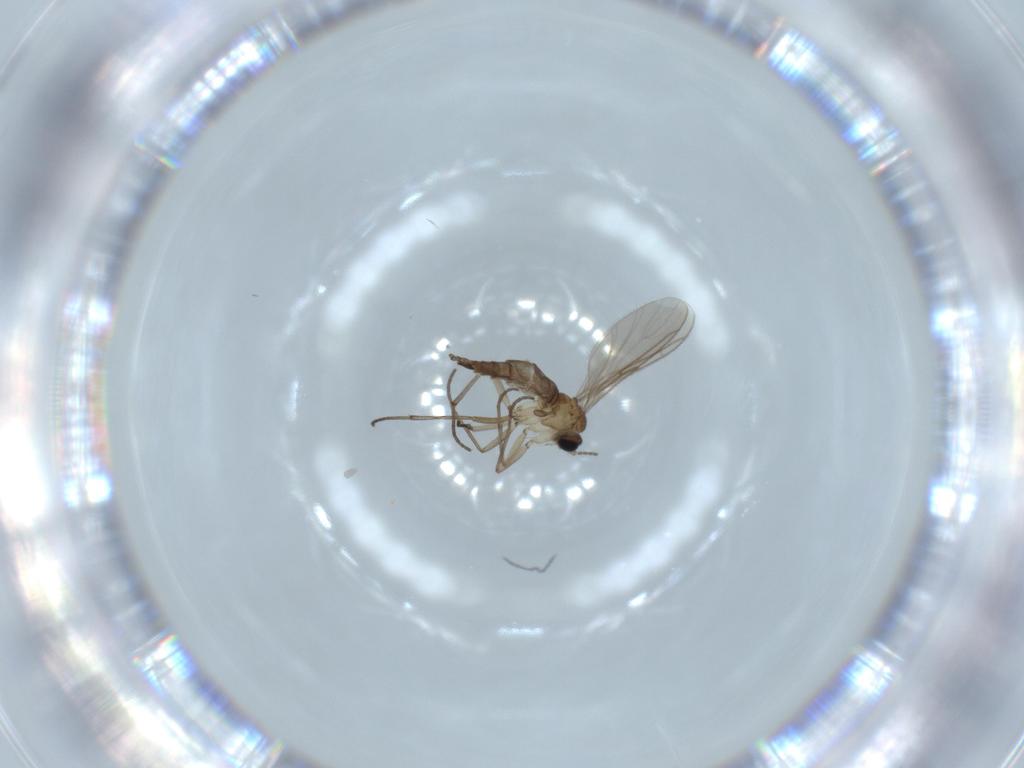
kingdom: Animalia
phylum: Arthropoda
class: Insecta
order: Diptera
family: Sciaridae
